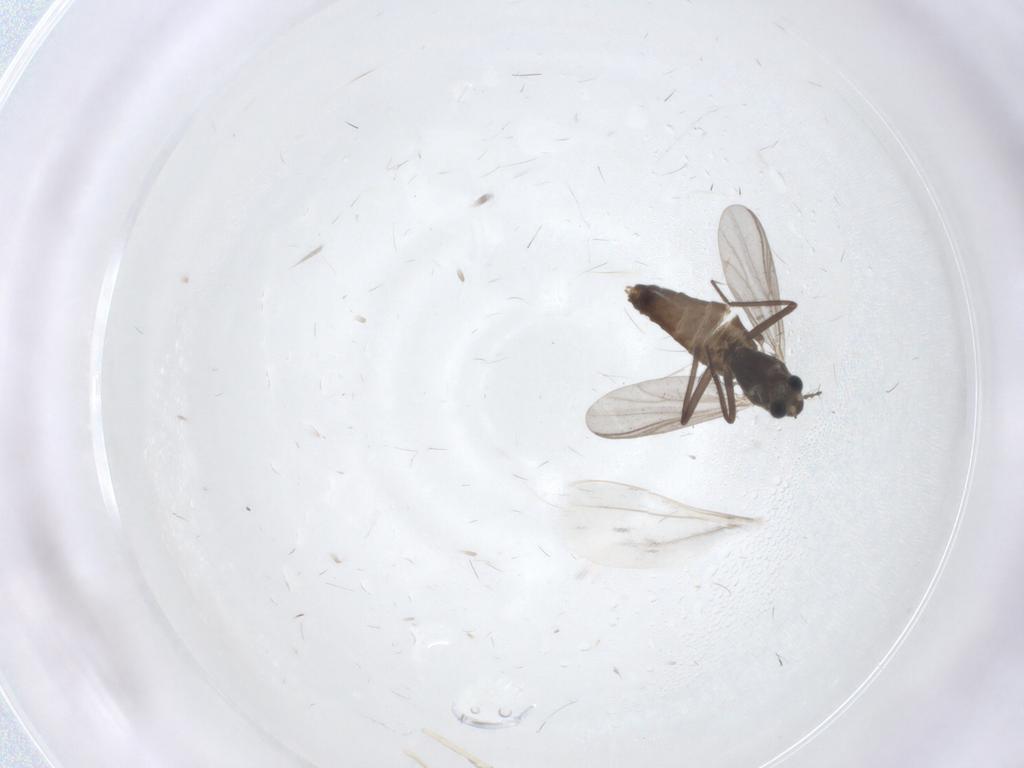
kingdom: Animalia
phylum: Arthropoda
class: Insecta
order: Diptera
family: Chironomidae
